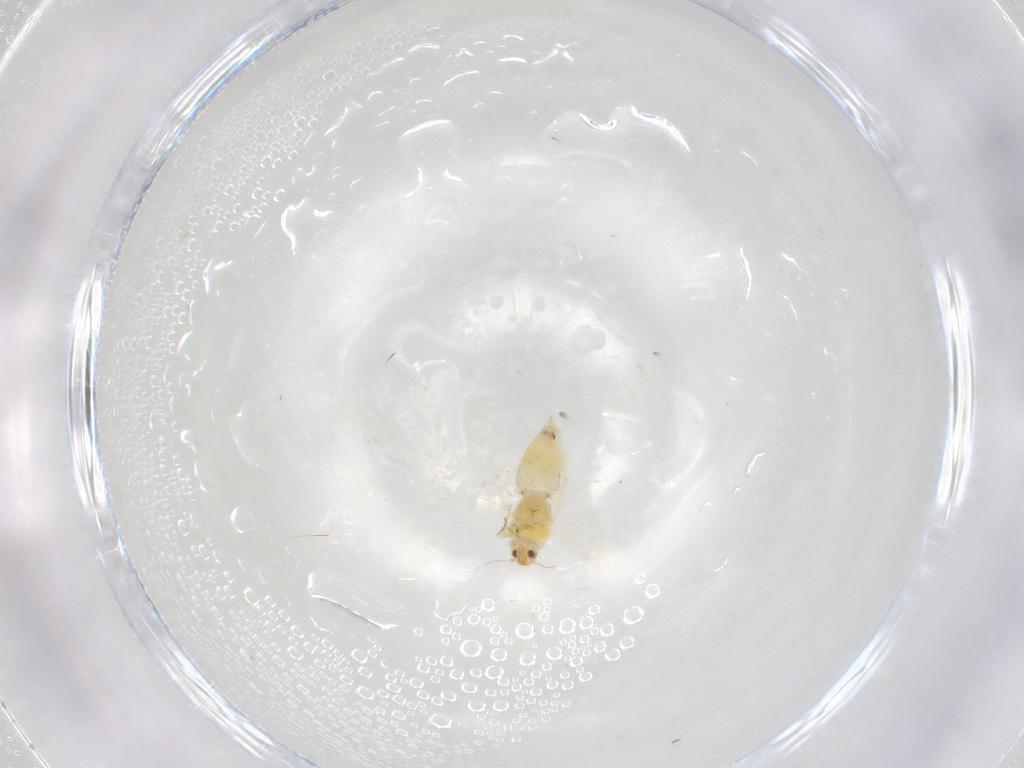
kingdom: Animalia
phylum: Arthropoda
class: Insecta
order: Hemiptera
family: Aleyrodidae
